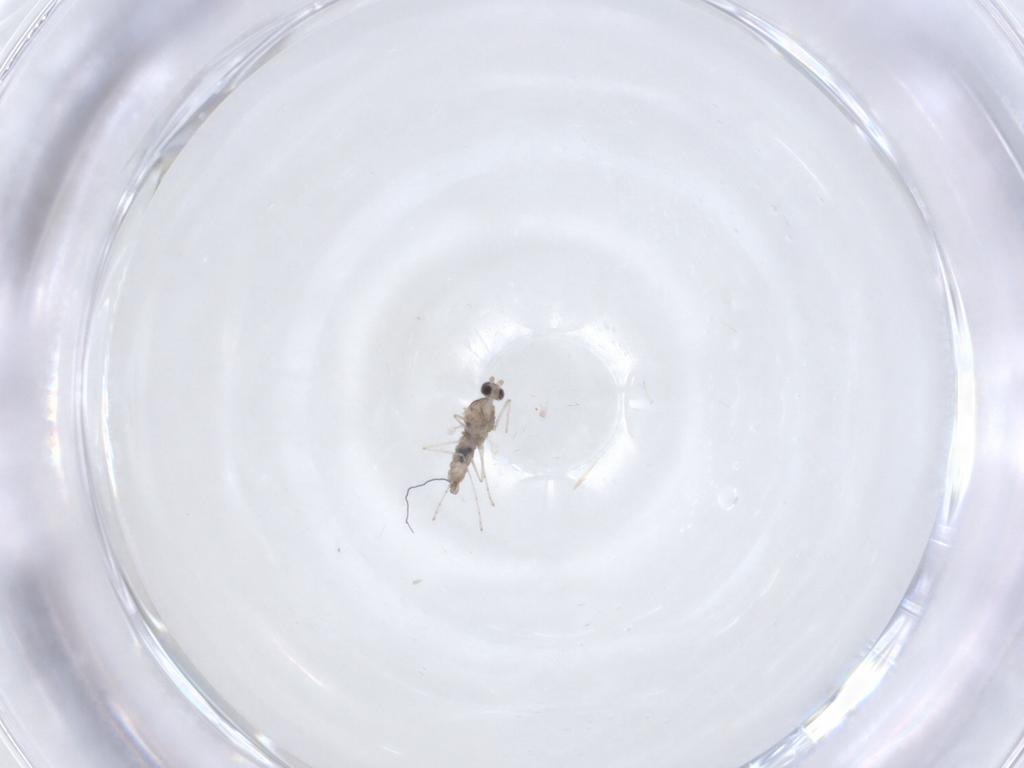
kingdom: Animalia
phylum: Arthropoda
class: Insecta
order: Diptera
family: Cecidomyiidae
